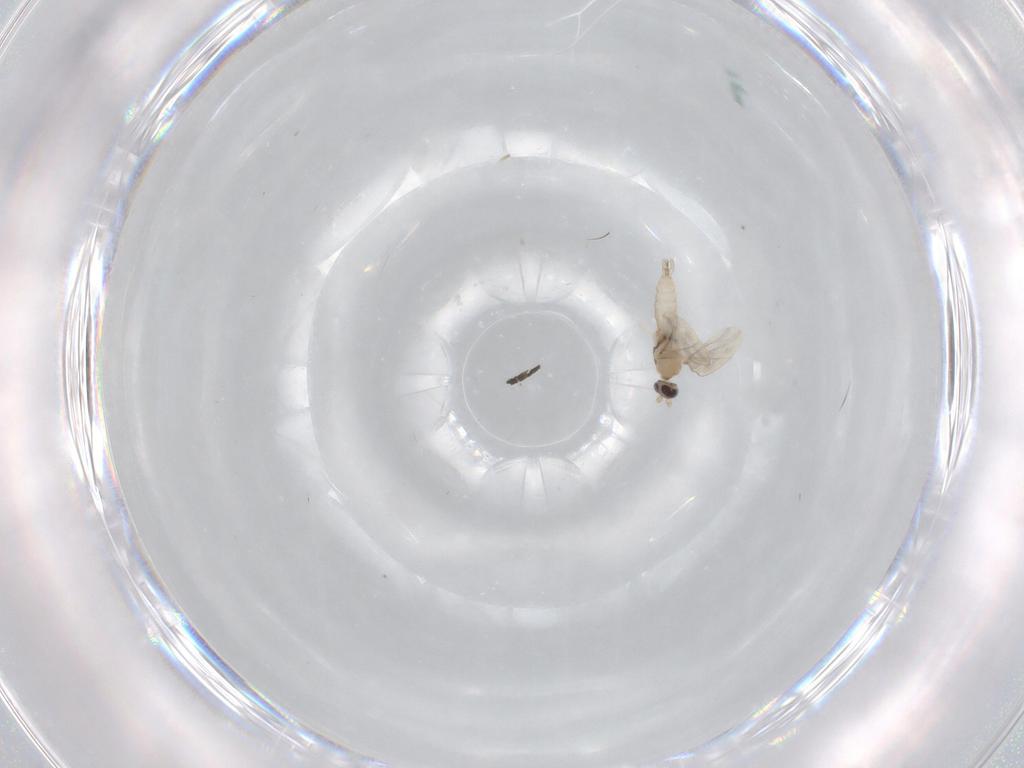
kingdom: Animalia
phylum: Arthropoda
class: Insecta
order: Diptera
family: Cecidomyiidae
